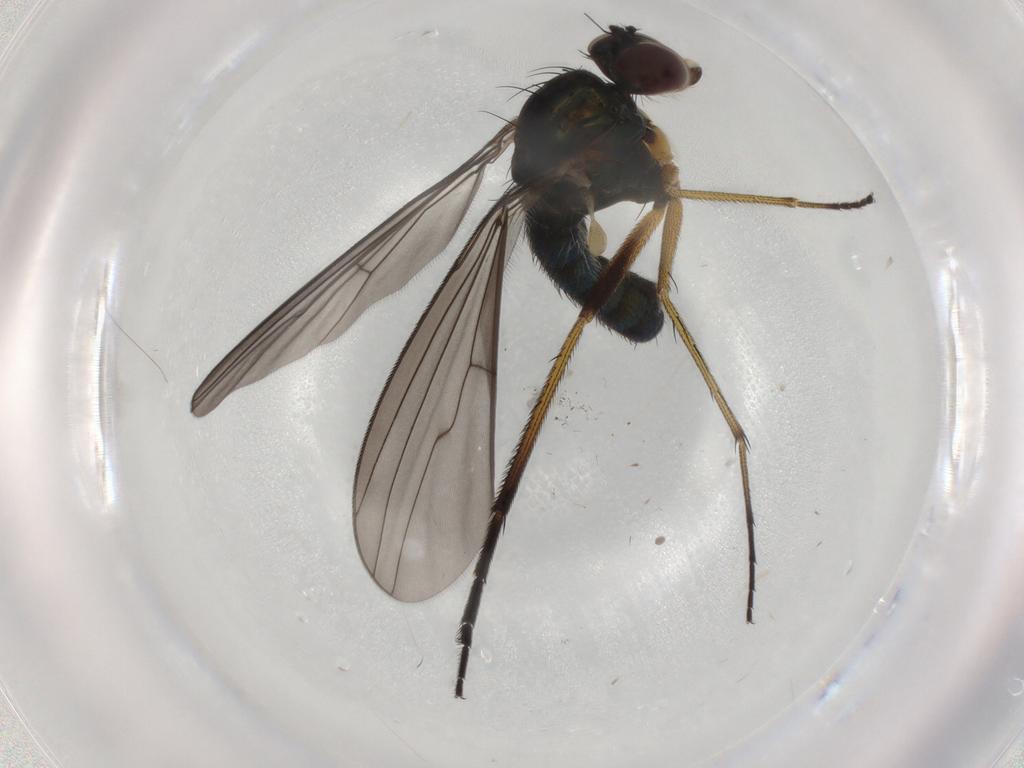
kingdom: Animalia
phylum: Arthropoda
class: Insecta
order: Diptera
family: Dolichopodidae
